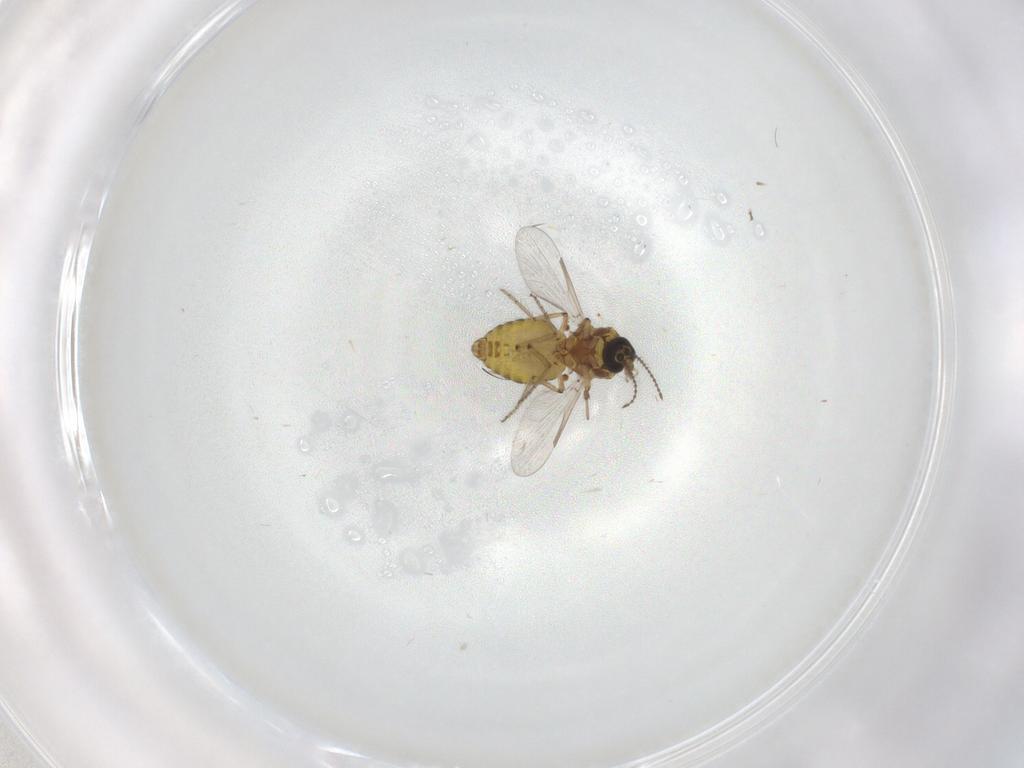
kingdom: Animalia
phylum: Arthropoda
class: Insecta
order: Diptera
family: Ceratopogonidae
